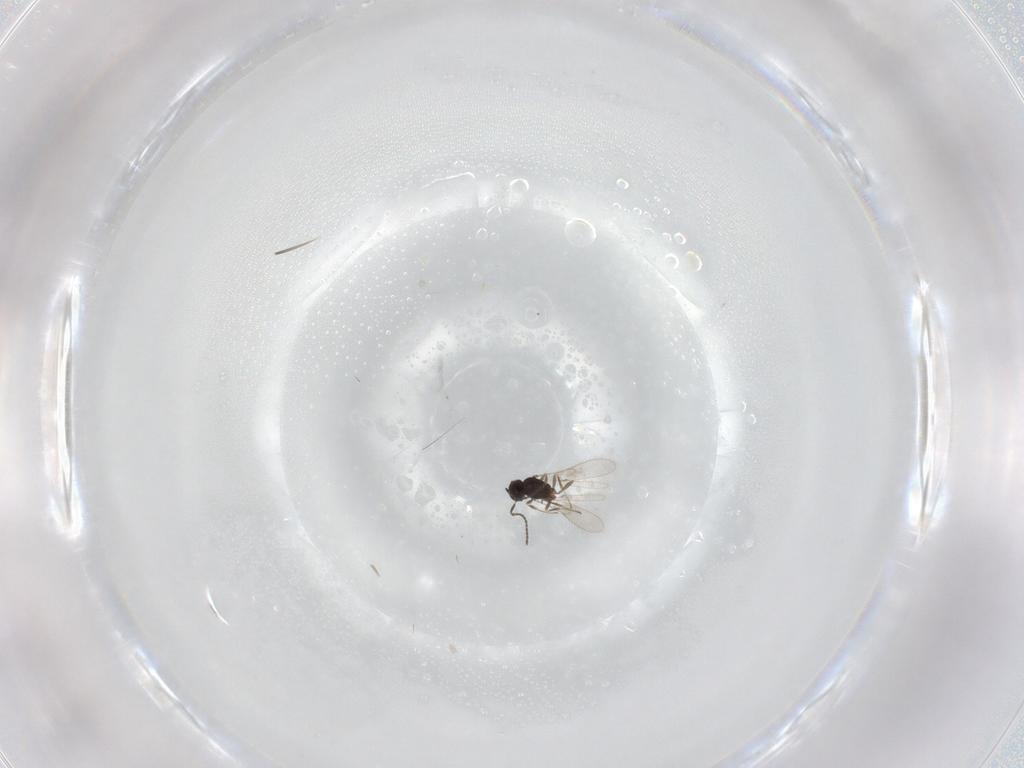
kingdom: Animalia
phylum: Arthropoda
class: Insecta
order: Hymenoptera
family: Scelionidae
